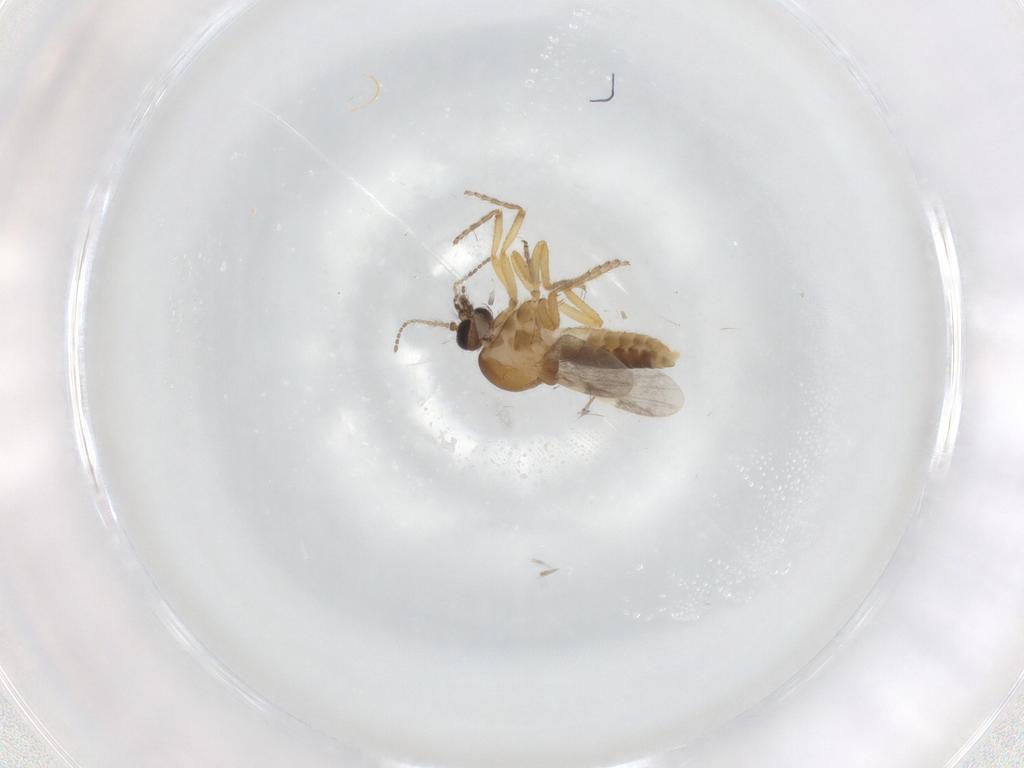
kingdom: Animalia
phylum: Arthropoda
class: Insecta
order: Diptera
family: Ceratopogonidae
